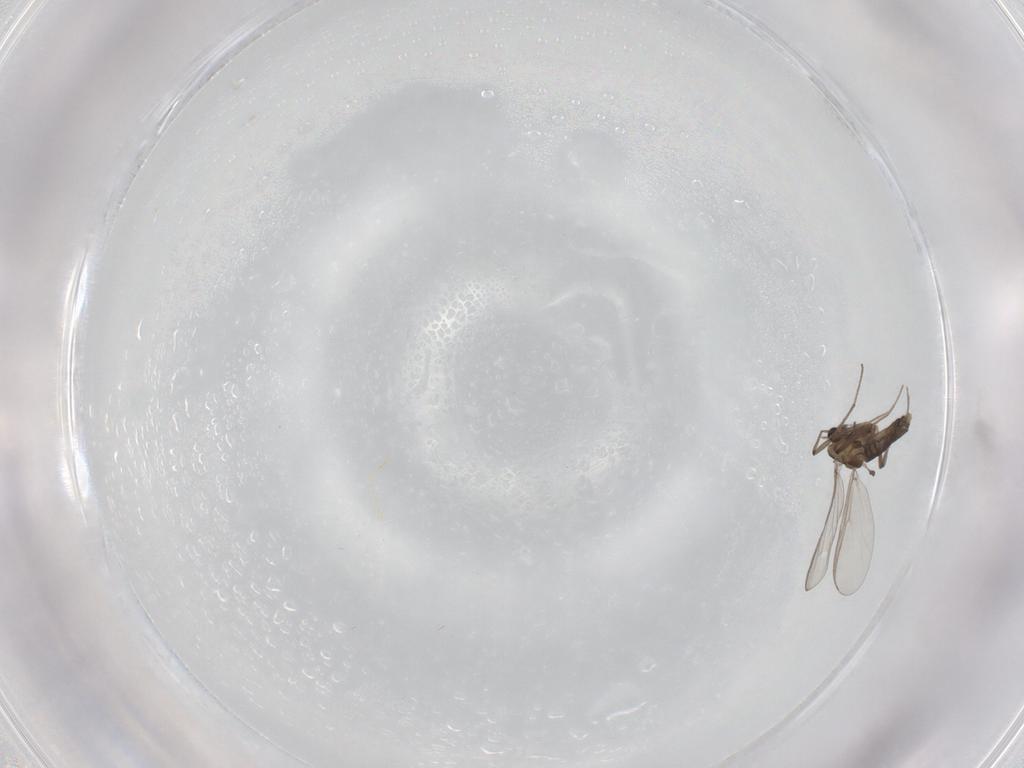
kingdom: Animalia
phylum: Arthropoda
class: Insecta
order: Diptera
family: Chironomidae
